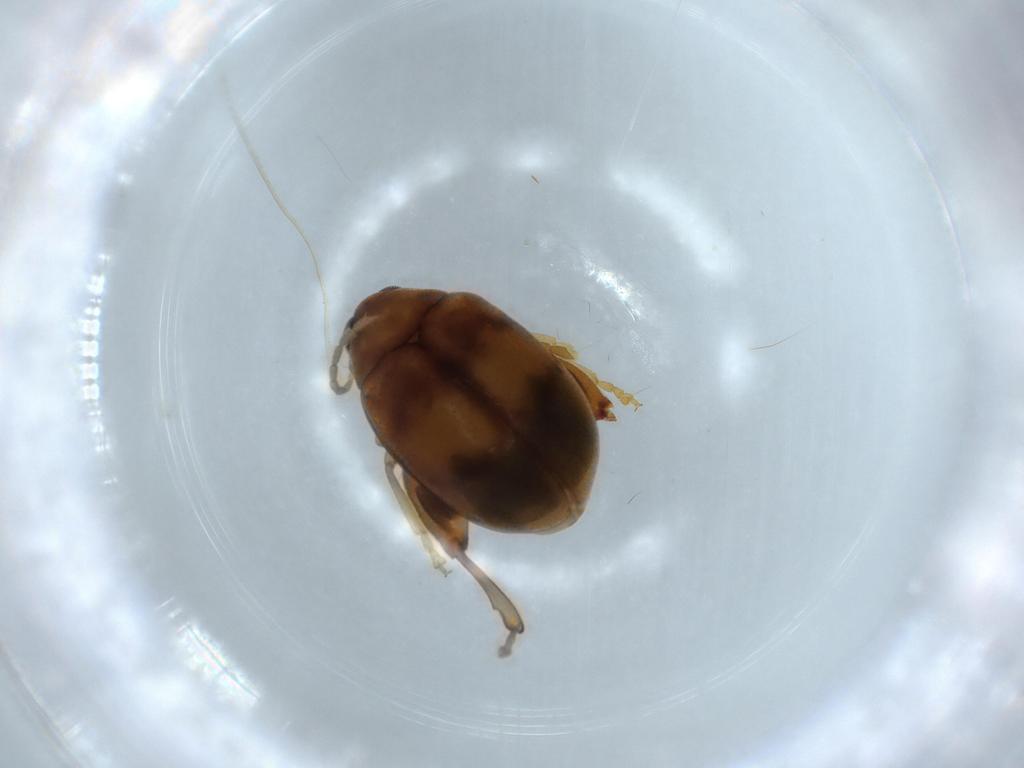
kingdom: Animalia
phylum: Arthropoda
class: Insecta
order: Coleoptera
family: Chrysomelidae
